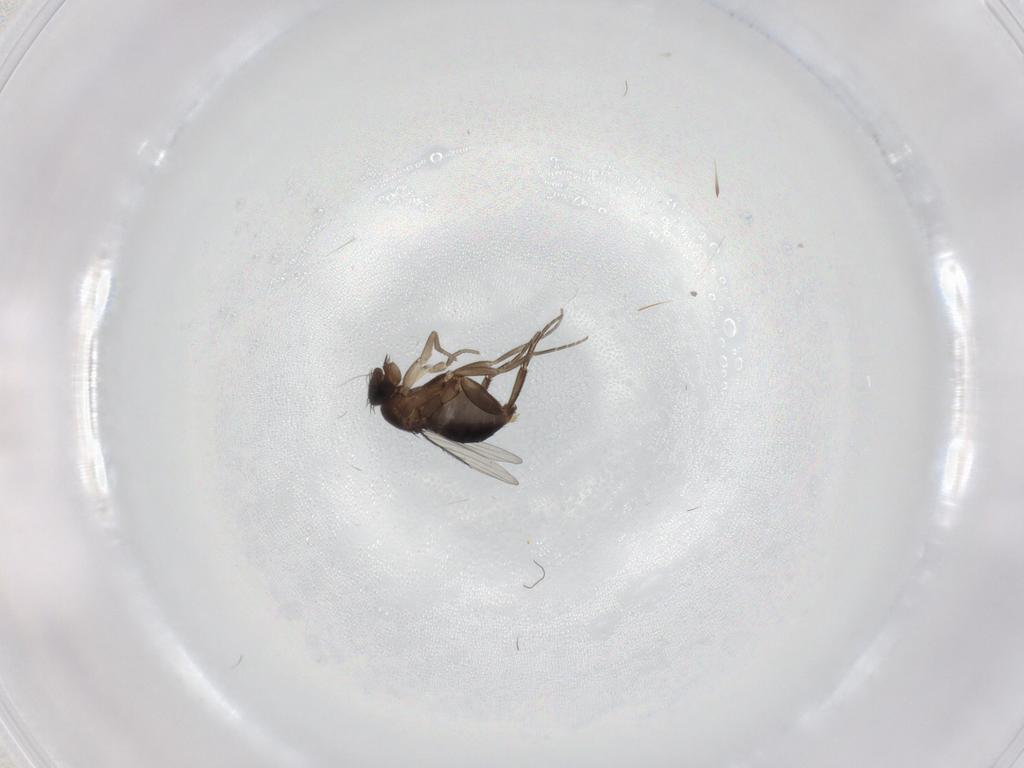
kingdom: Animalia
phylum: Arthropoda
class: Insecta
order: Diptera
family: Phoridae
